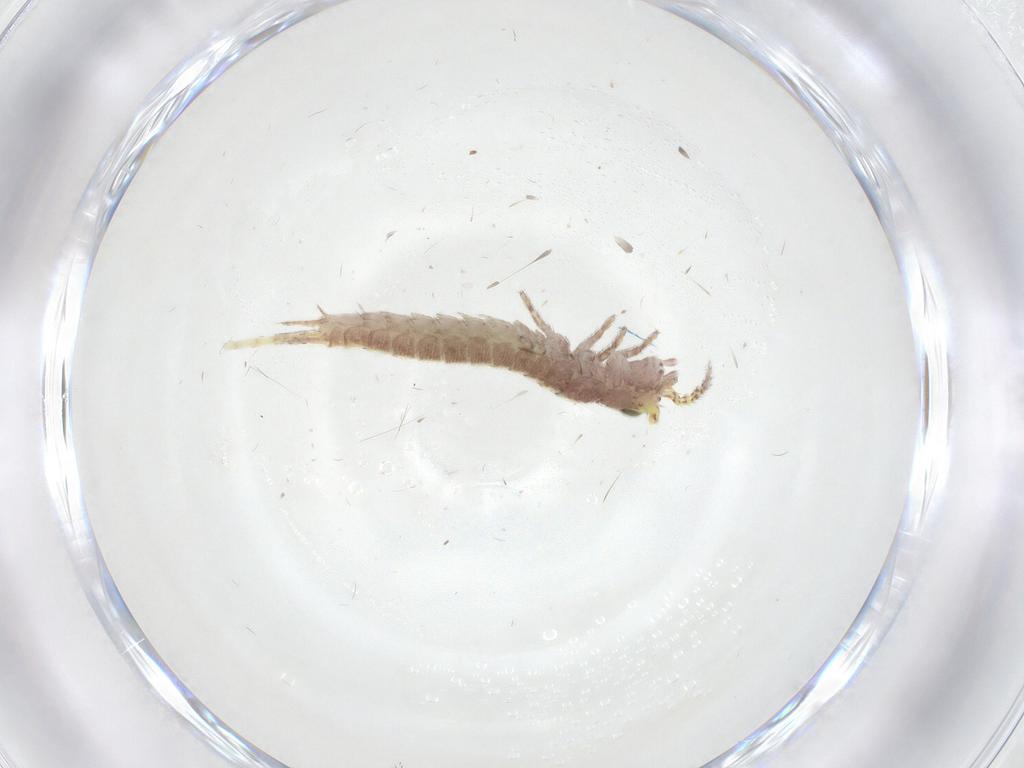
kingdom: Animalia
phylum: Arthropoda
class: Insecta
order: Archaeognatha
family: Machilidae
